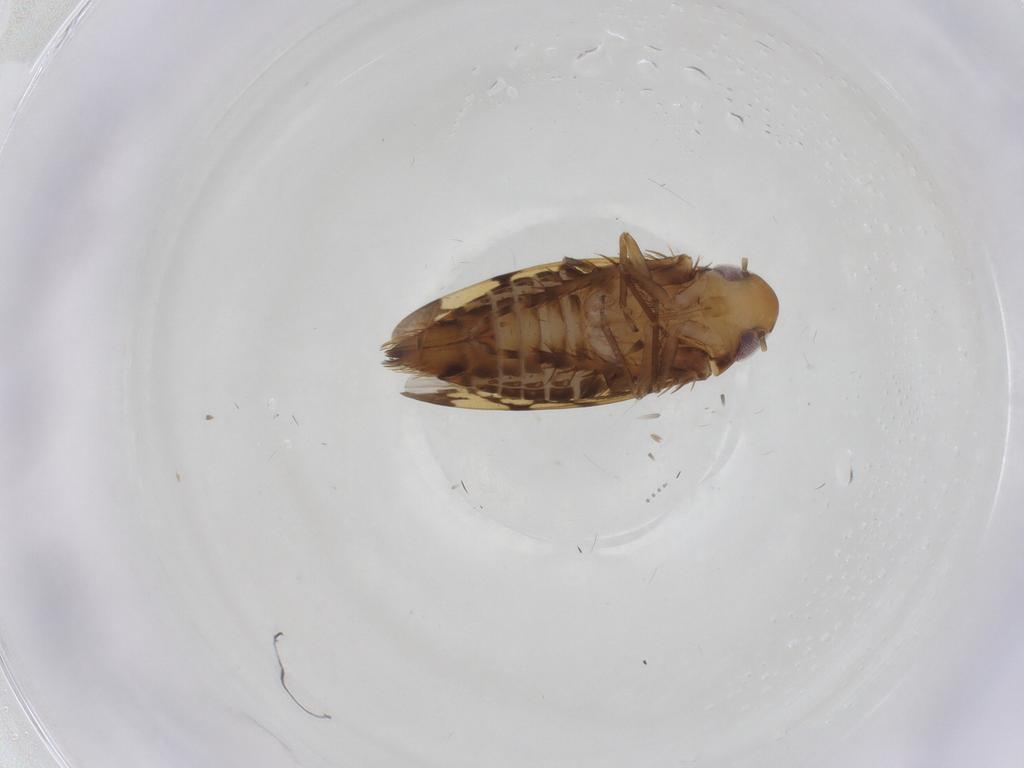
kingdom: Animalia
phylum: Arthropoda
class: Insecta
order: Hemiptera
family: Cicadellidae
